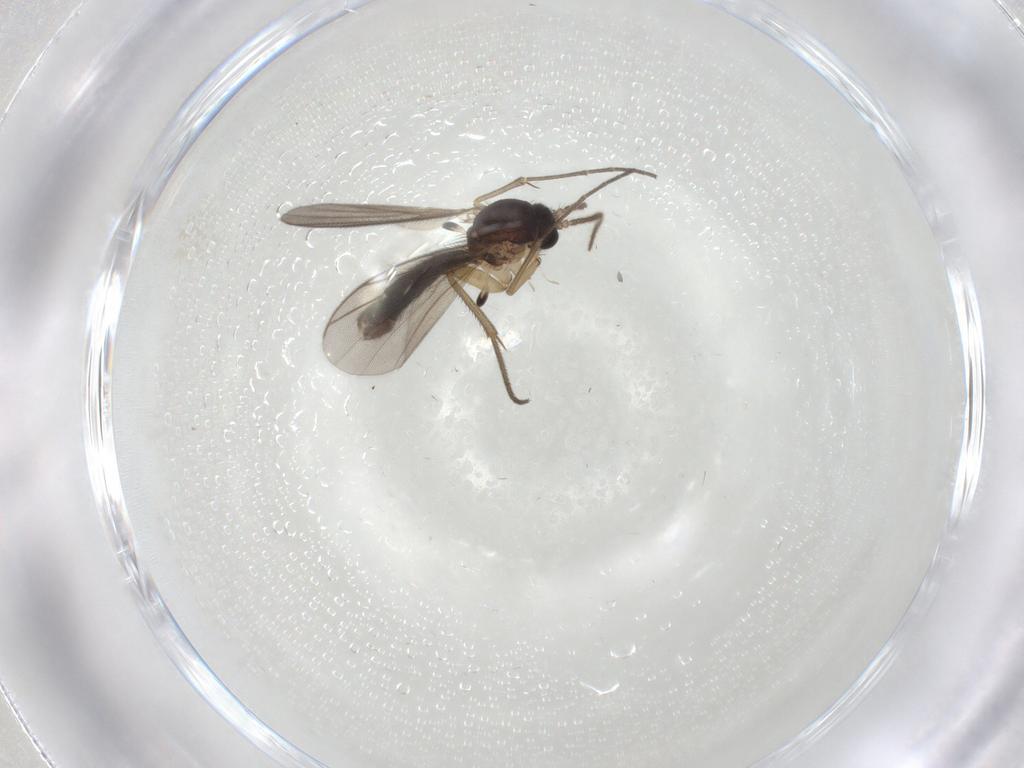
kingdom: Animalia
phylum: Arthropoda
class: Insecta
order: Diptera
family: Mycetophilidae
